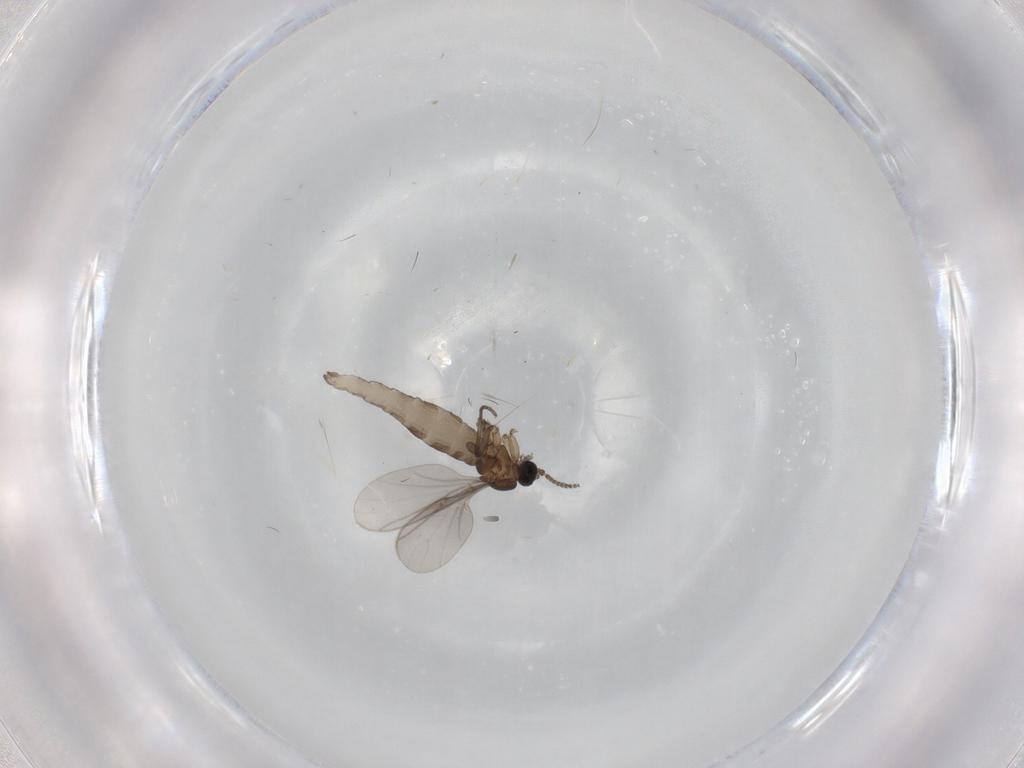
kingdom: Animalia
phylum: Arthropoda
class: Insecta
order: Diptera
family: Sciaridae
